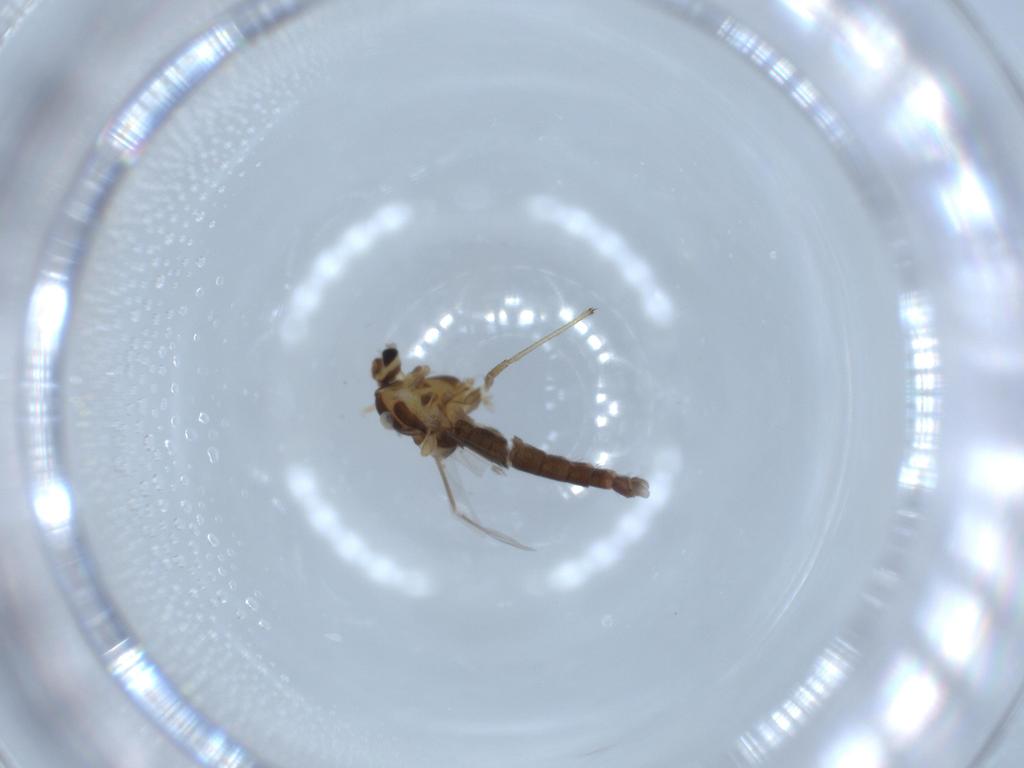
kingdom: Animalia
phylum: Arthropoda
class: Insecta
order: Diptera
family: Chironomidae
